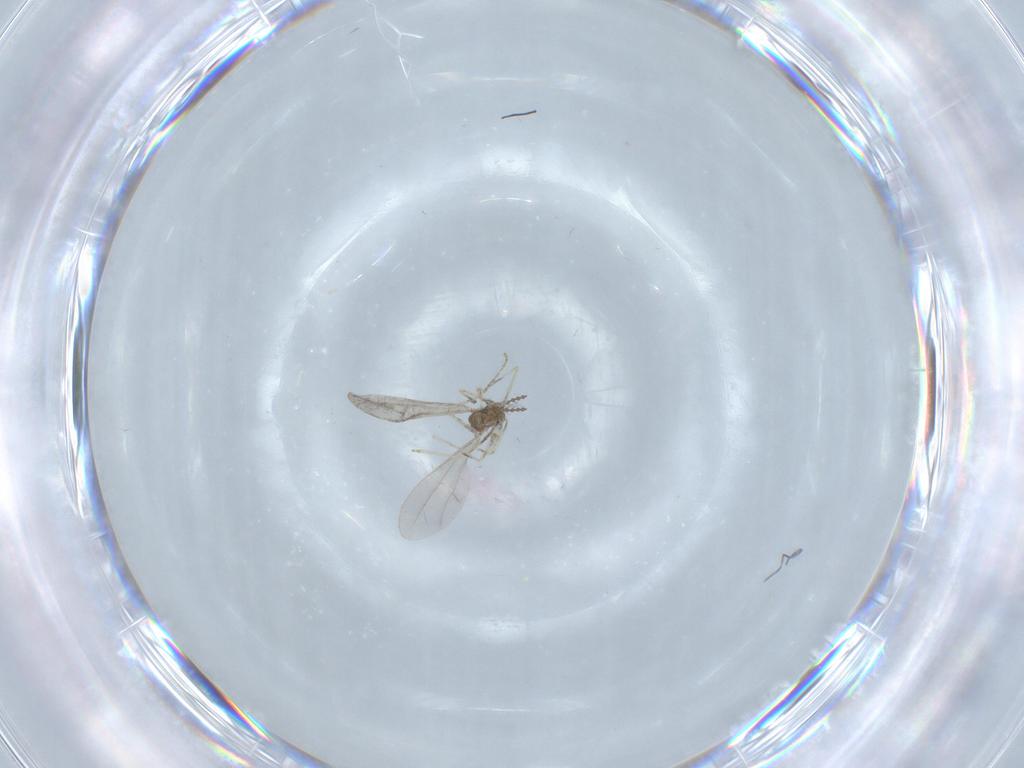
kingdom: Animalia
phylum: Arthropoda
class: Insecta
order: Diptera
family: Cecidomyiidae
